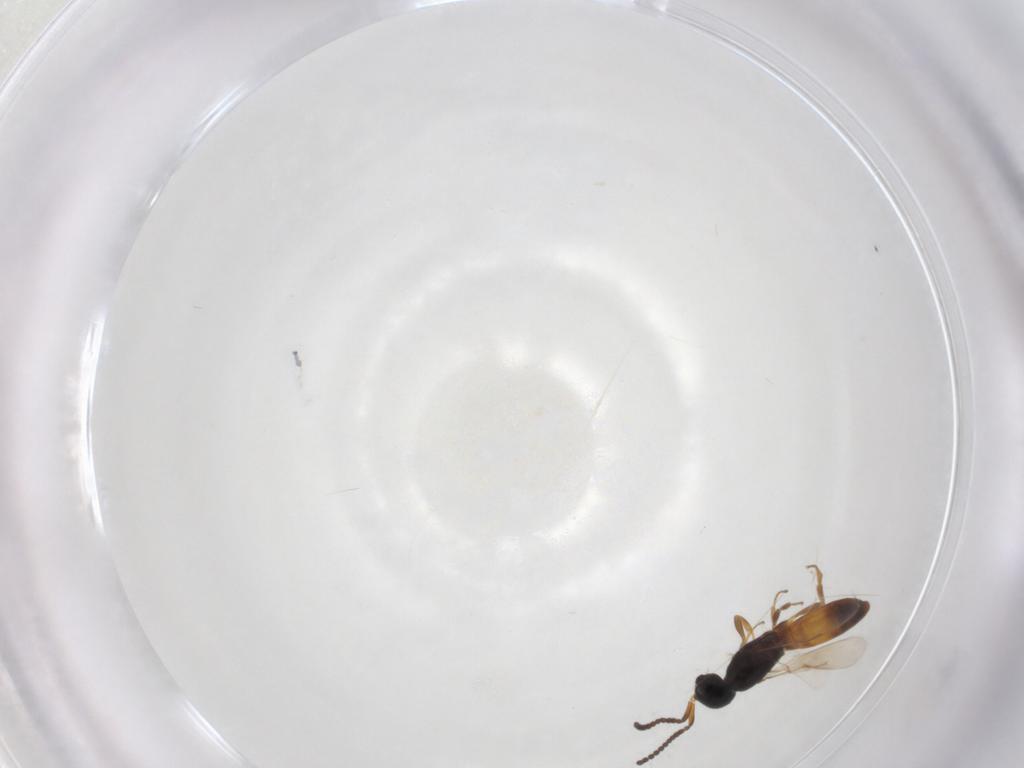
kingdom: Animalia
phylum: Arthropoda
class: Insecta
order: Hymenoptera
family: Scelionidae
